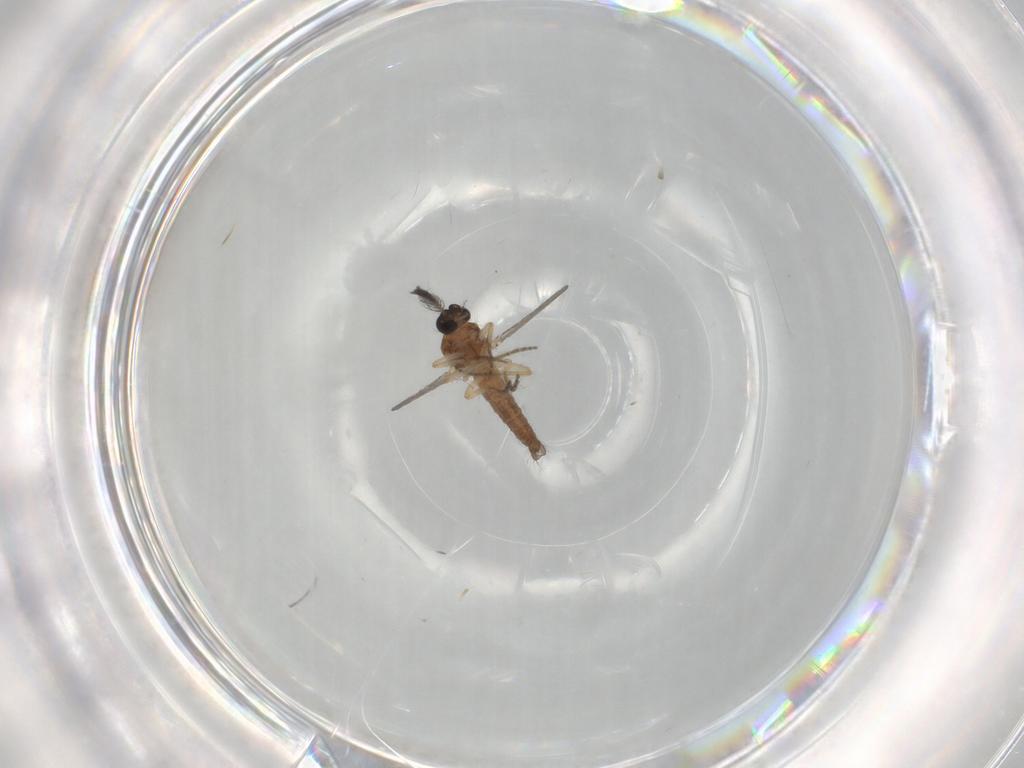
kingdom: Animalia
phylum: Arthropoda
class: Insecta
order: Diptera
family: Ceratopogonidae
